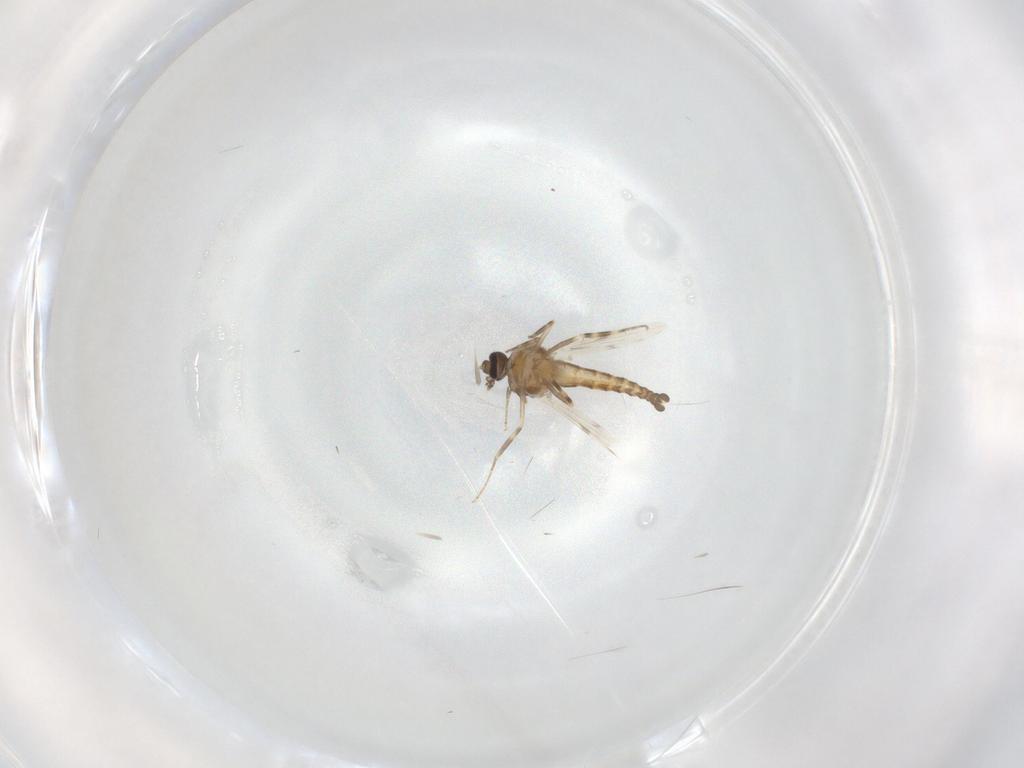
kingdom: Animalia
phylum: Arthropoda
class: Insecta
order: Diptera
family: Ceratopogonidae
